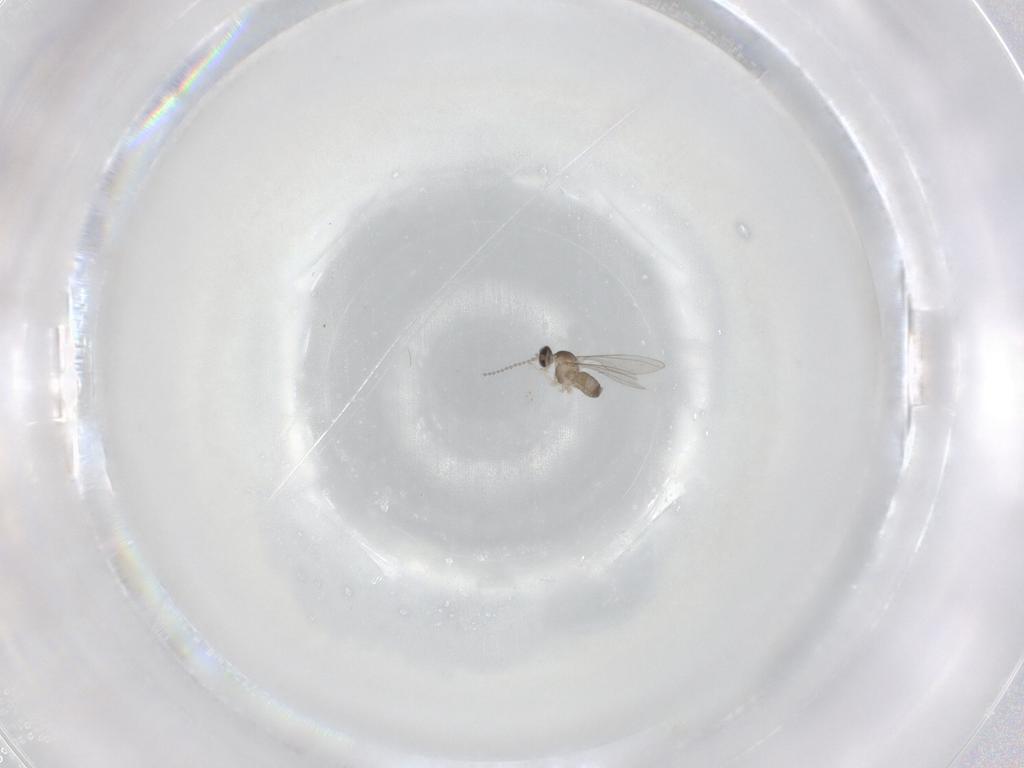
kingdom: Animalia
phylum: Arthropoda
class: Insecta
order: Diptera
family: Cecidomyiidae
